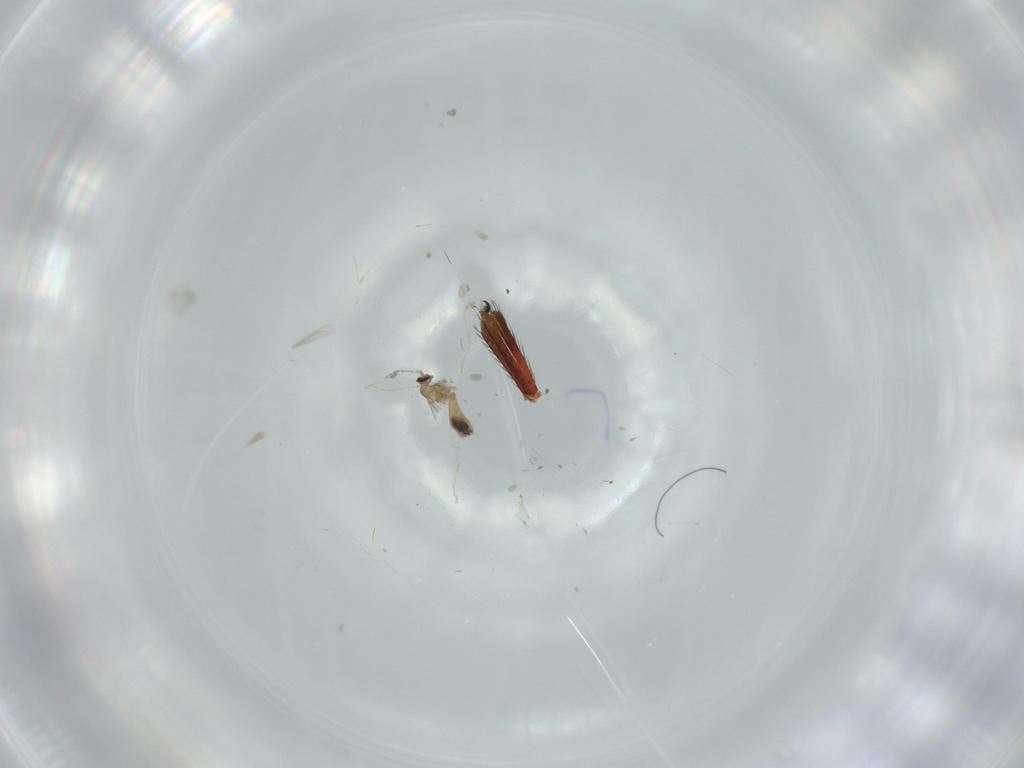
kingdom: Animalia
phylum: Arthropoda
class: Insecta
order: Diptera
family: Cecidomyiidae
